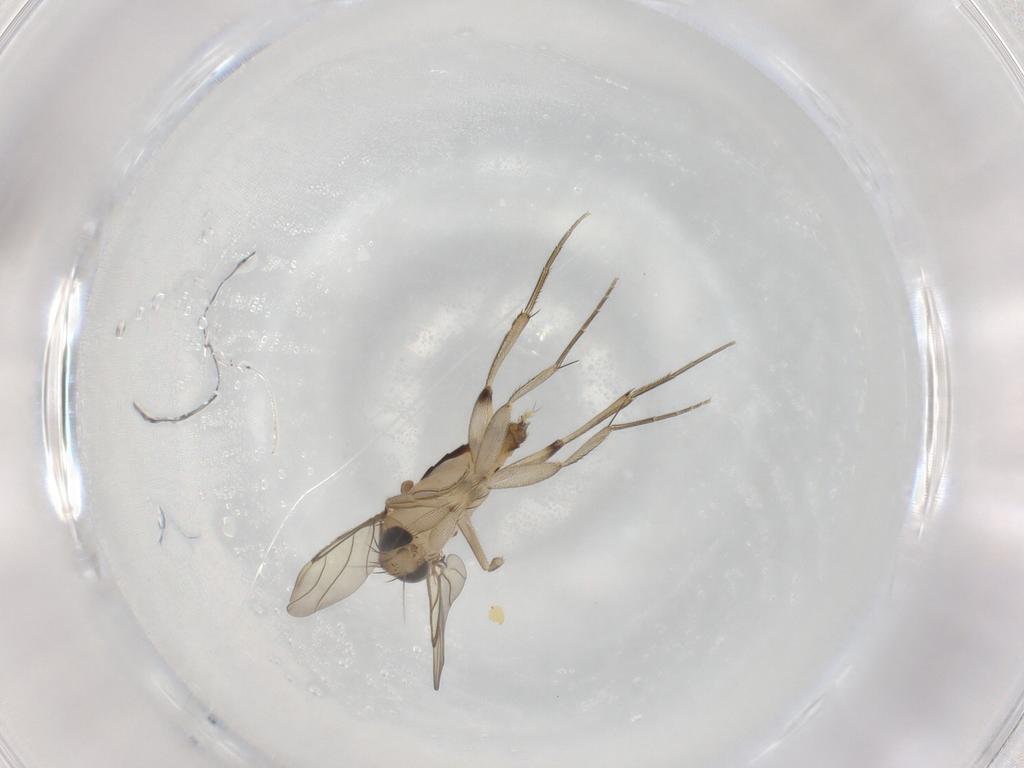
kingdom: Animalia
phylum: Arthropoda
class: Insecta
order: Diptera
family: Phoridae
